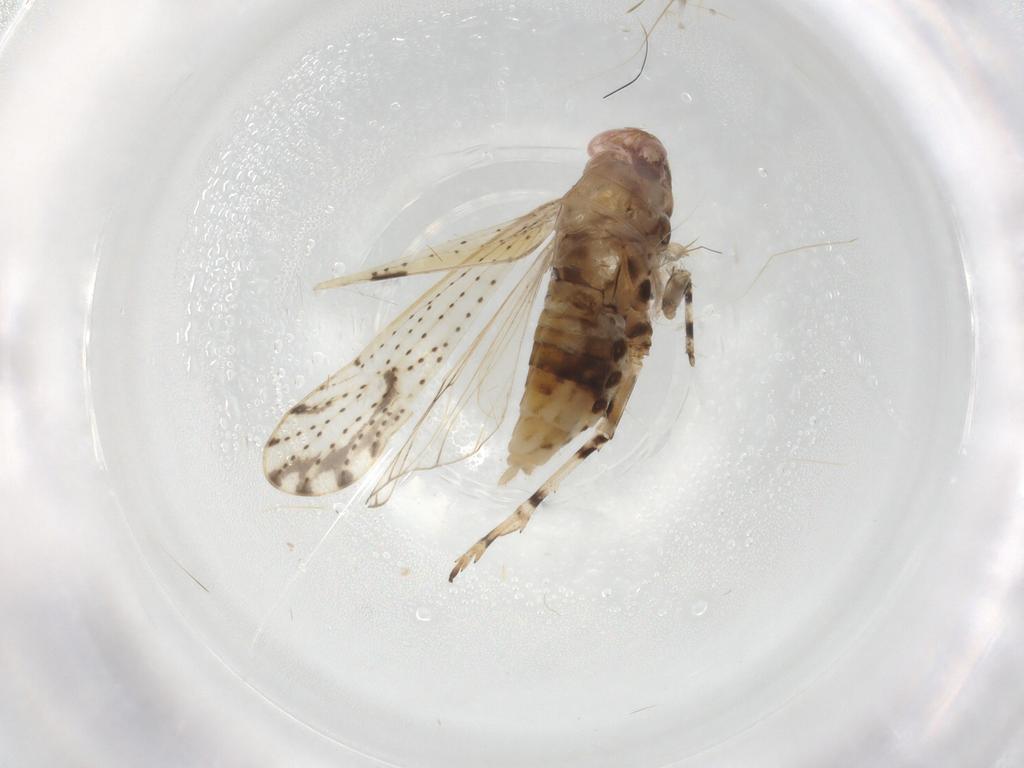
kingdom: Animalia
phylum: Arthropoda
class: Insecta
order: Hemiptera
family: Delphacidae
